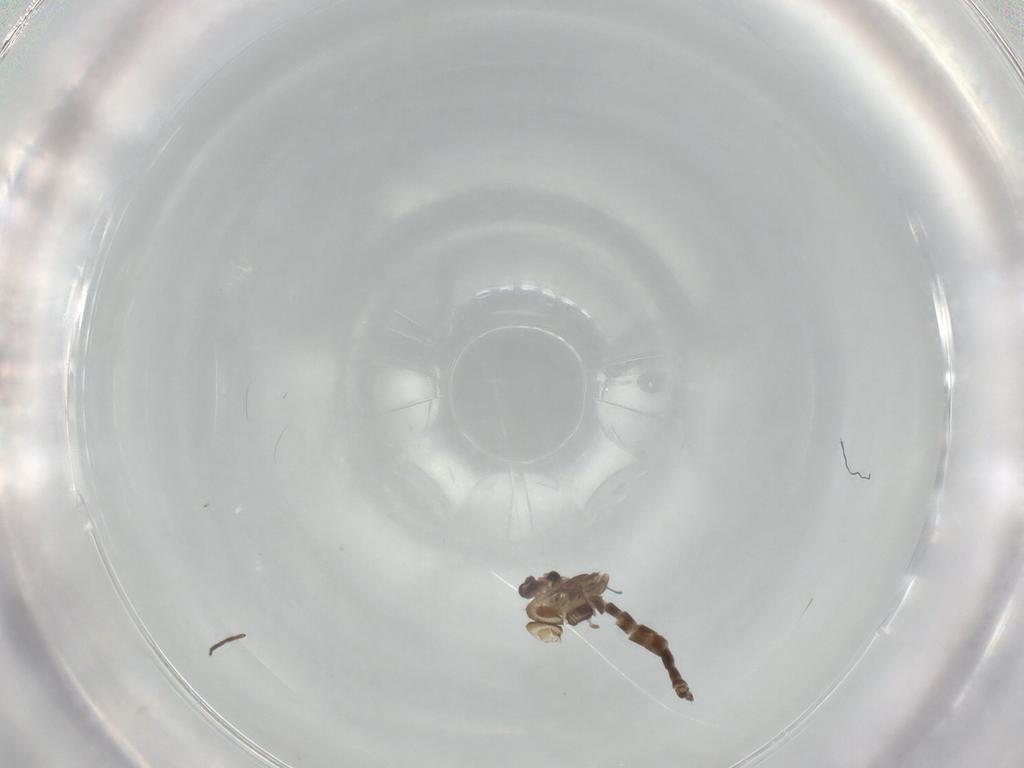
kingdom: Animalia
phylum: Arthropoda
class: Insecta
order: Diptera
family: Chironomidae
